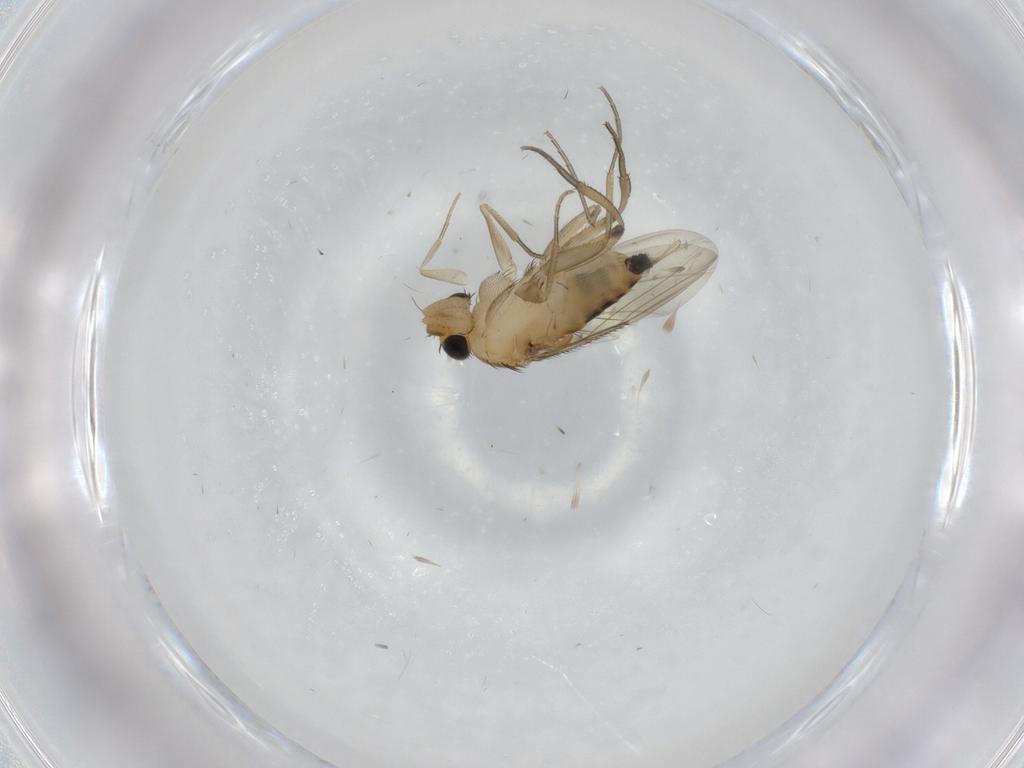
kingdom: Animalia
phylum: Arthropoda
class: Insecta
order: Diptera
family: Phoridae
